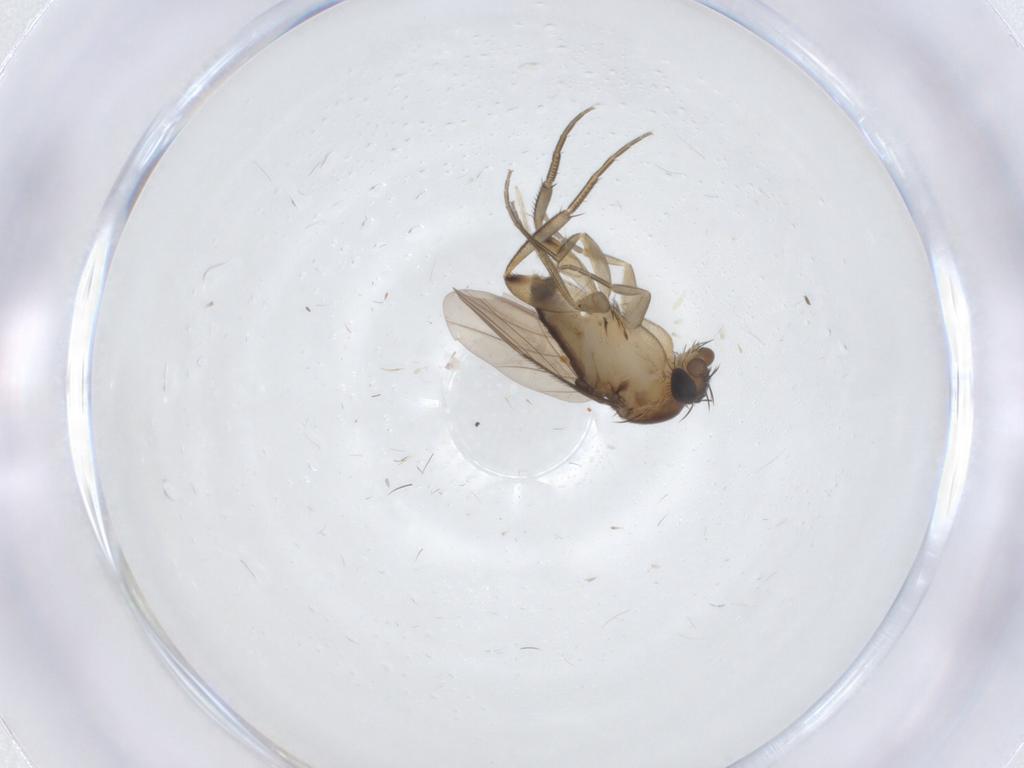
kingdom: Animalia
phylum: Arthropoda
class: Insecta
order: Diptera
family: Phoridae
